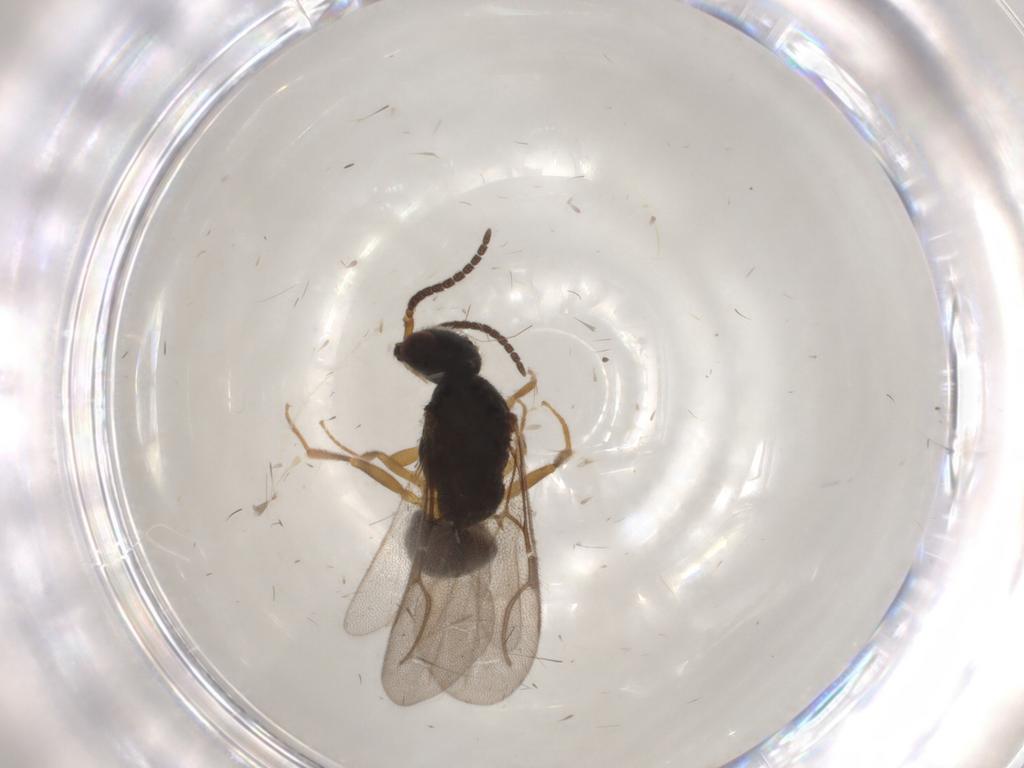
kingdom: Animalia
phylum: Arthropoda
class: Insecta
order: Hymenoptera
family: Bethylidae
